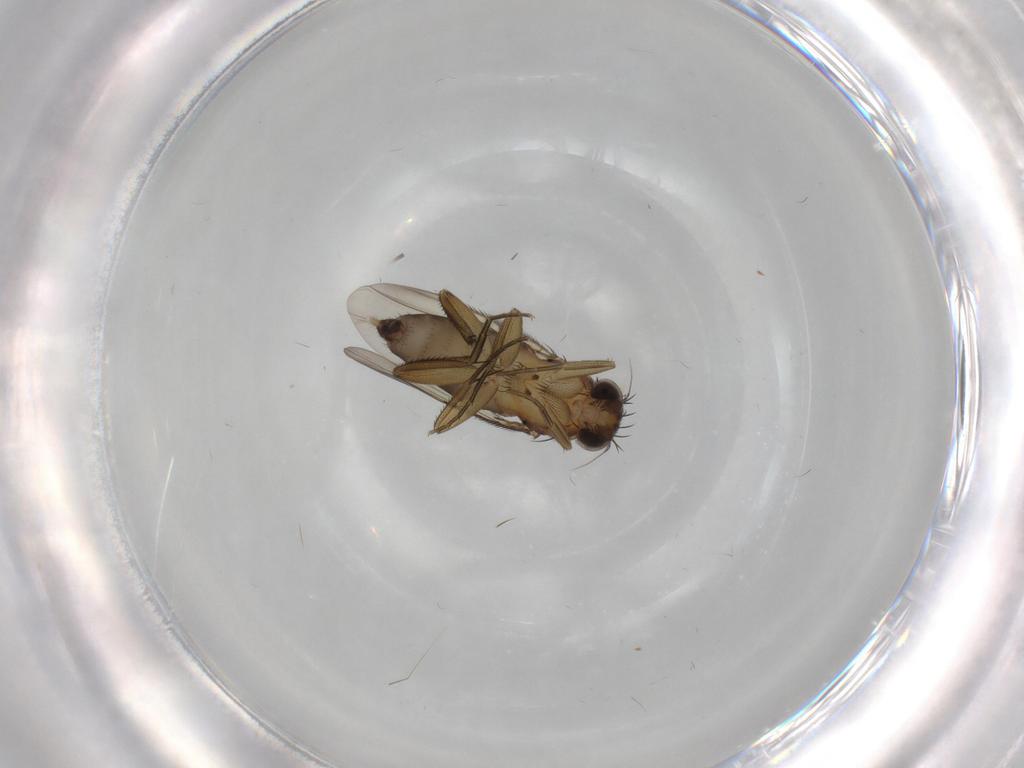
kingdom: Animalia
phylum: Arthropoda
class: Insecta
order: Diptera
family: Phoridae
